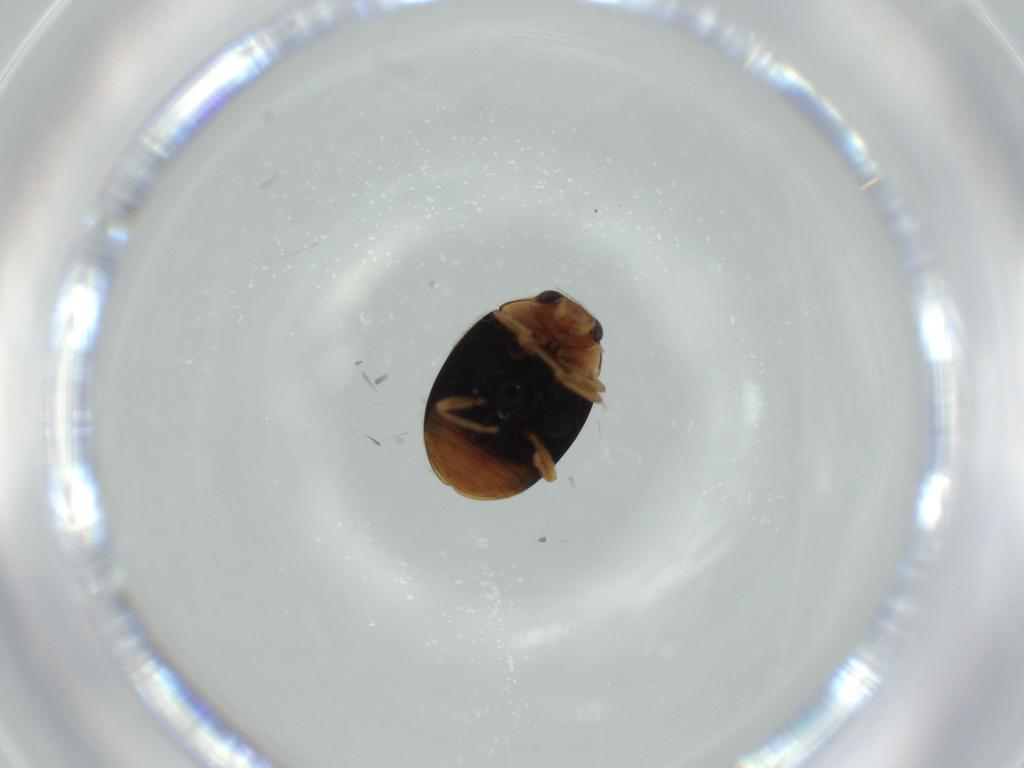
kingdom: Animalia
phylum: Arthropoda
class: Insecta
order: Coleoptera
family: Coccinellidae
